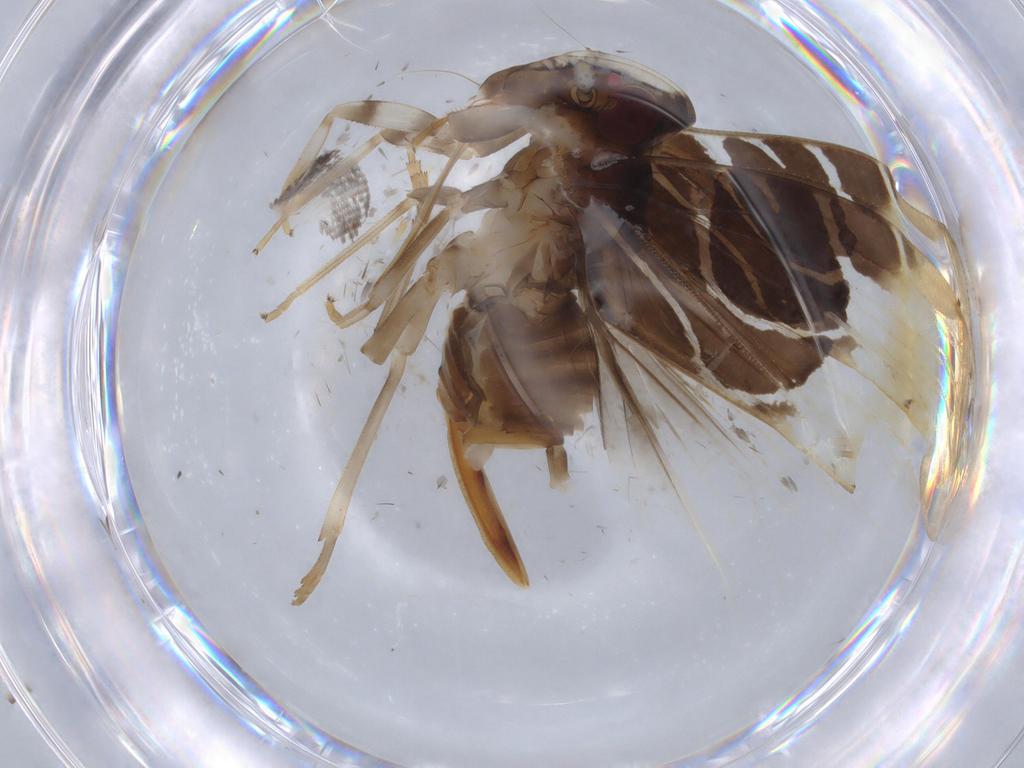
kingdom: Animalia
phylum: Arthropoda
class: Insecta
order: Hemiptera
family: Cixiidae
